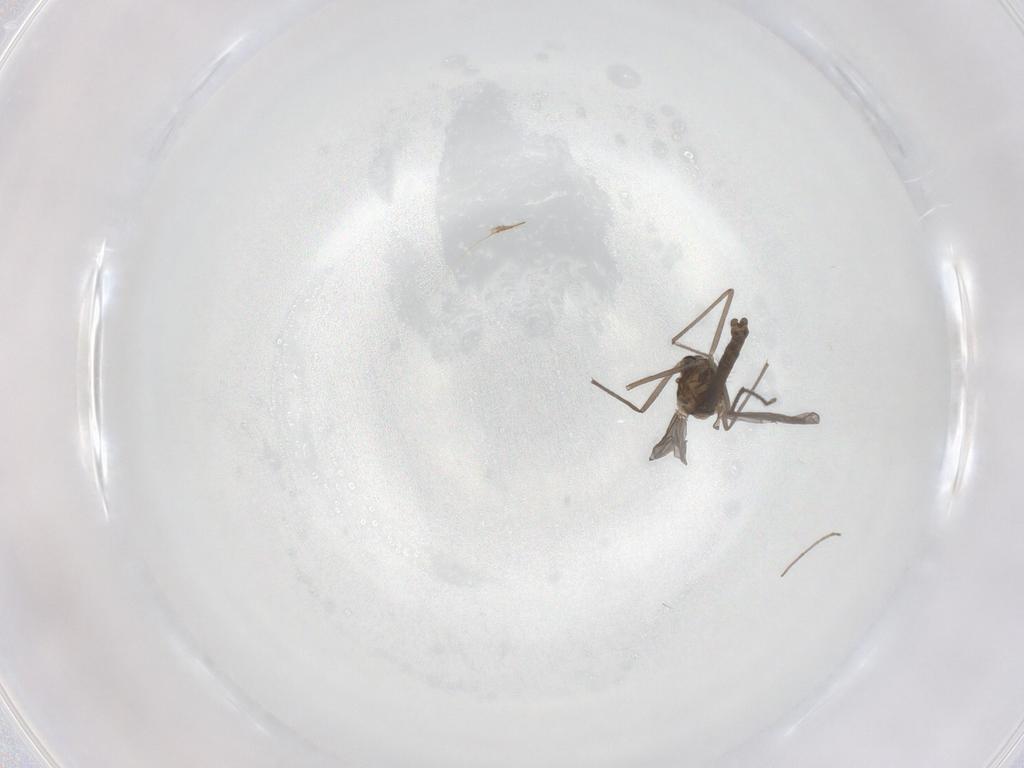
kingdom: Animalia
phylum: Arthropoda
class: Insecta
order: Diptera
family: Chironomidae
